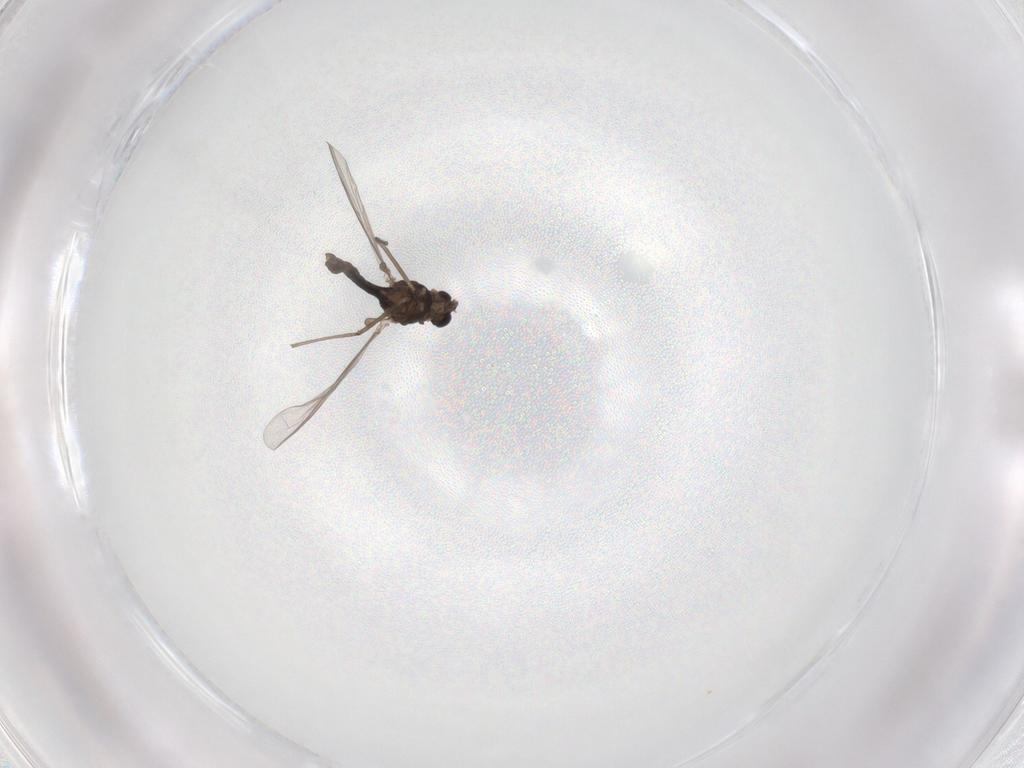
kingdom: Animalia
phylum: Arthropoda
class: Insecta
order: Diptera
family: Chironomidae
